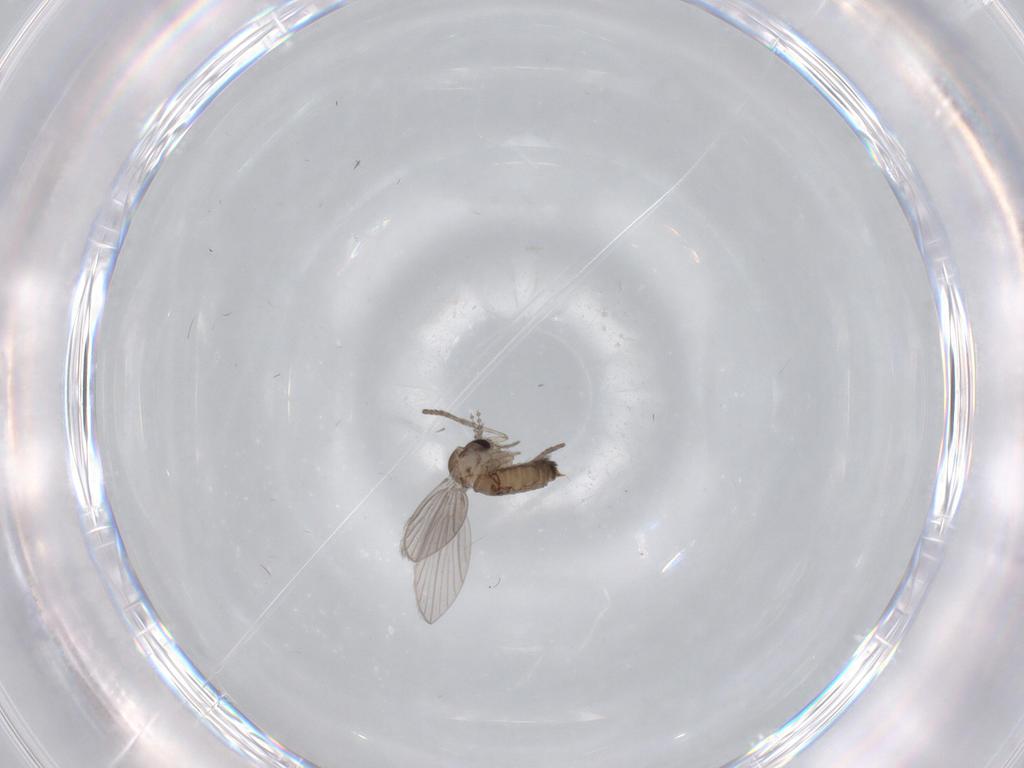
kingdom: Animalia
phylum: Arthropoda
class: Insecta
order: Diptera
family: Psychodidae
